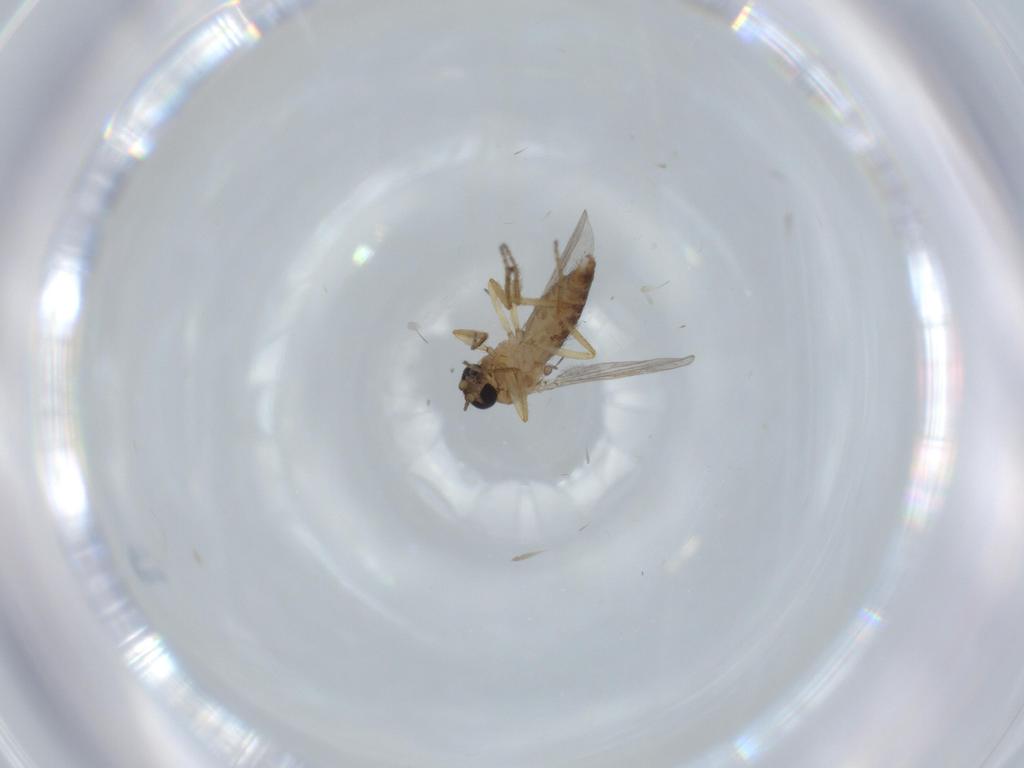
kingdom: Animalia
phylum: Arthropoda
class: Insecta
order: Diptera
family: Ceratopogonidae
